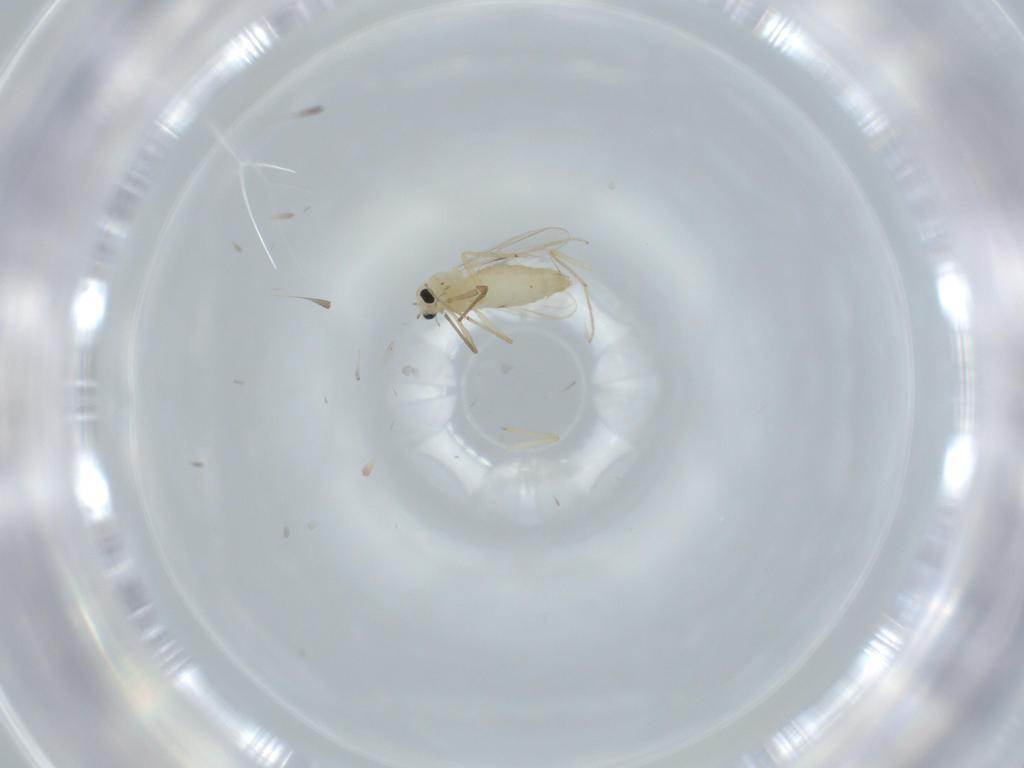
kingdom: Animalia
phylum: Arthropoda
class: Insecta
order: Diptera
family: Chironomidae
